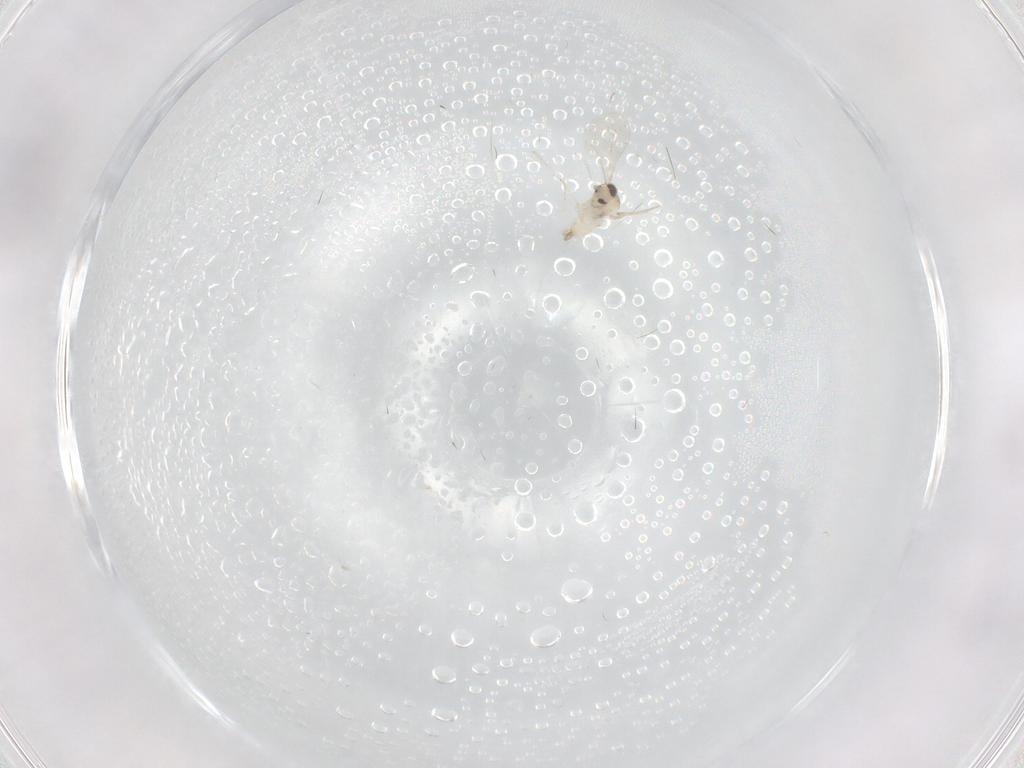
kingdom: Animalia
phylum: Arthropoda
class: Insecta
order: Diptera
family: Cecidomyiidae
